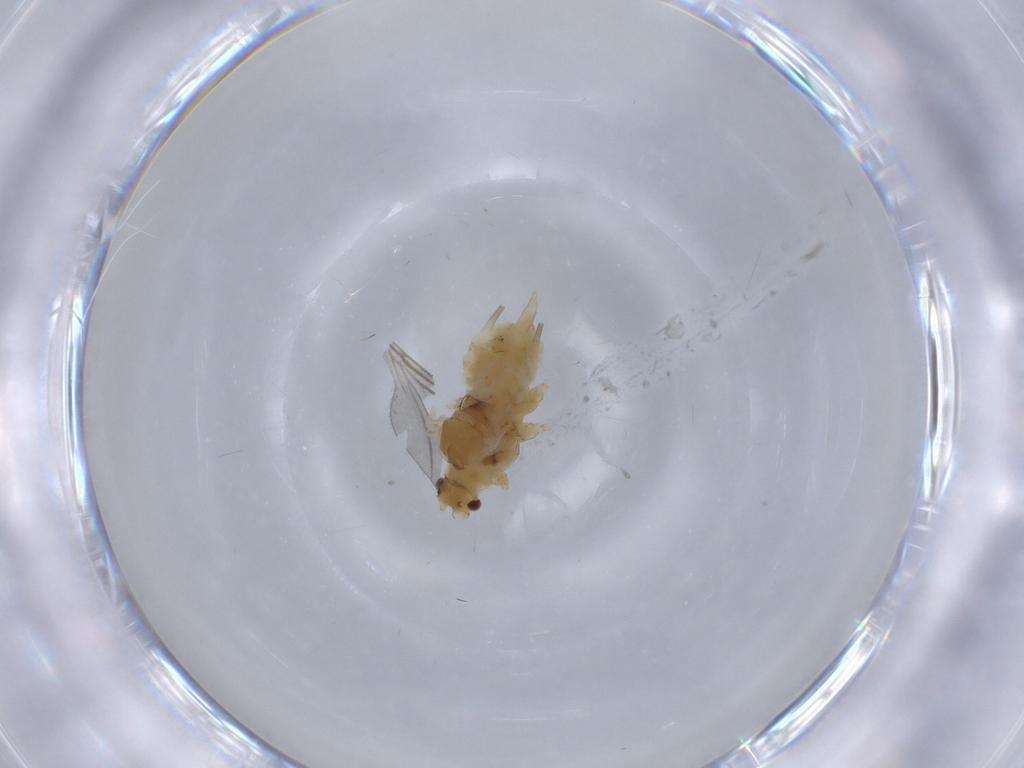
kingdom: Animalia
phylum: Arthropoda
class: Insecta
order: Hemiptera
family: Aphididae
